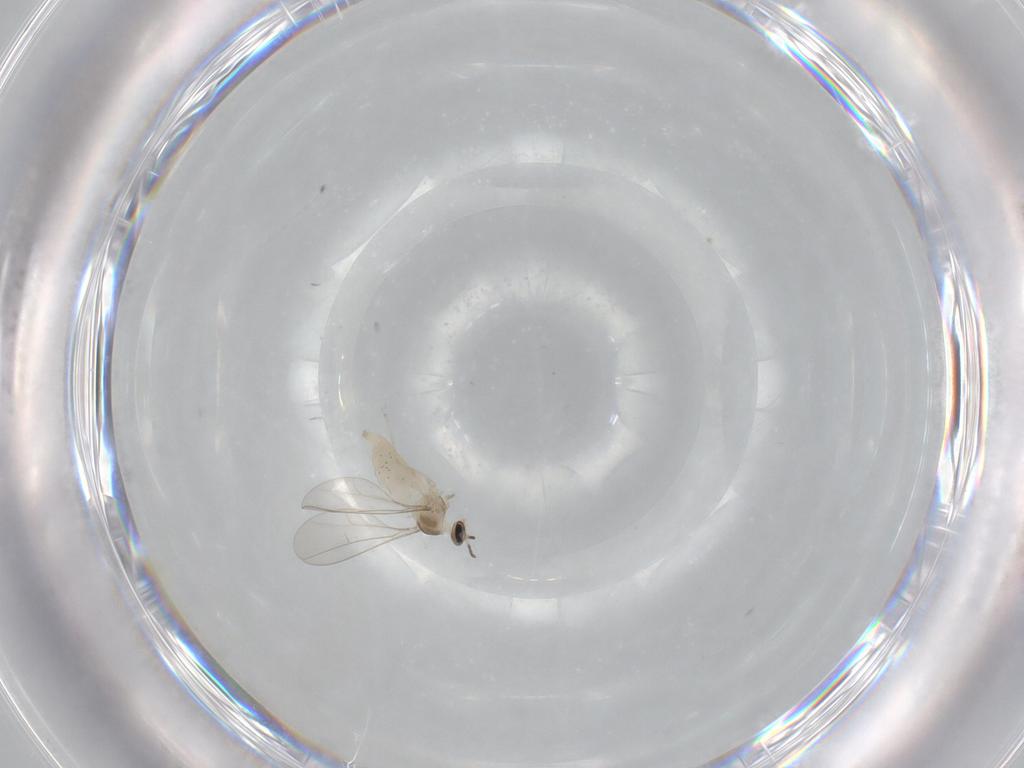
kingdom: Animalia
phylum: Arthropoda
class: Insecta
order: Diptera
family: Cecidomyiidae
